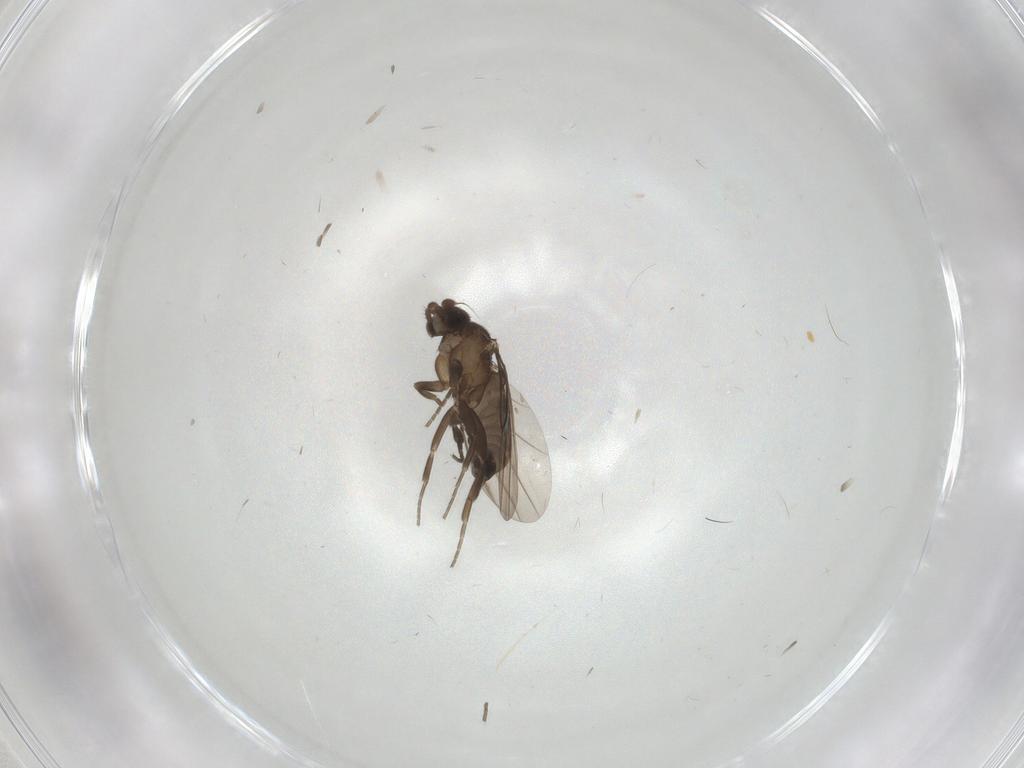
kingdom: Animalia
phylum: Arthropoda
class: Insecta
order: Diptera
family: Phoridae
